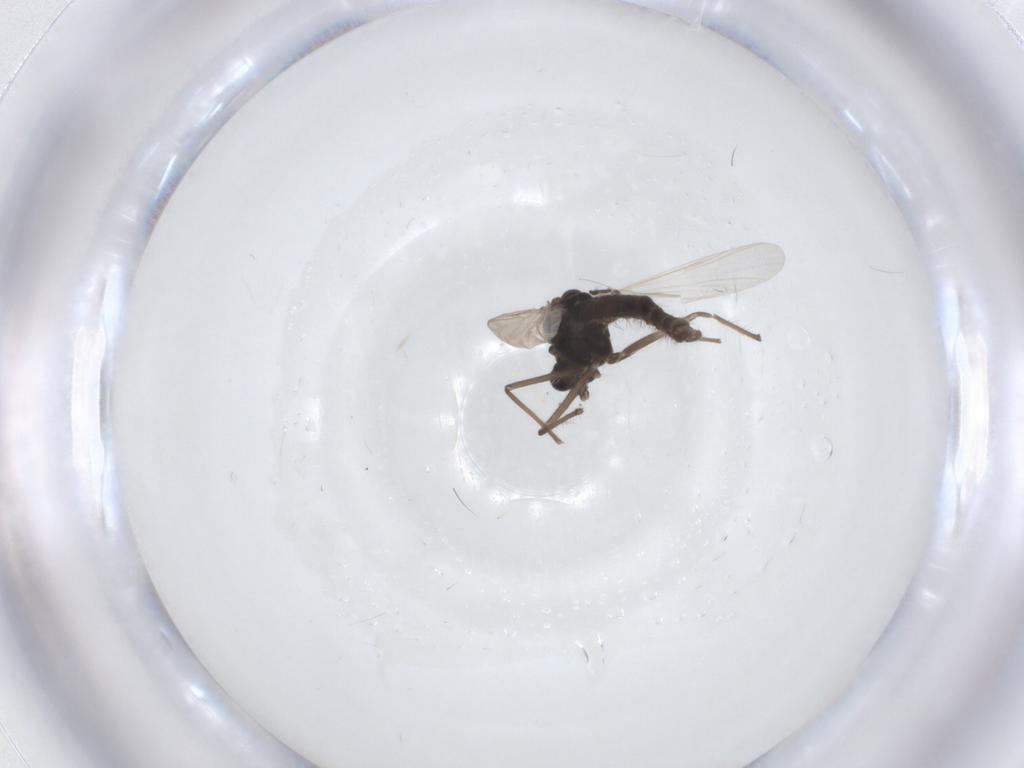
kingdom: Animalia
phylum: Arthropoda
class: Insecta
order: Diptera
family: Chironomidae
